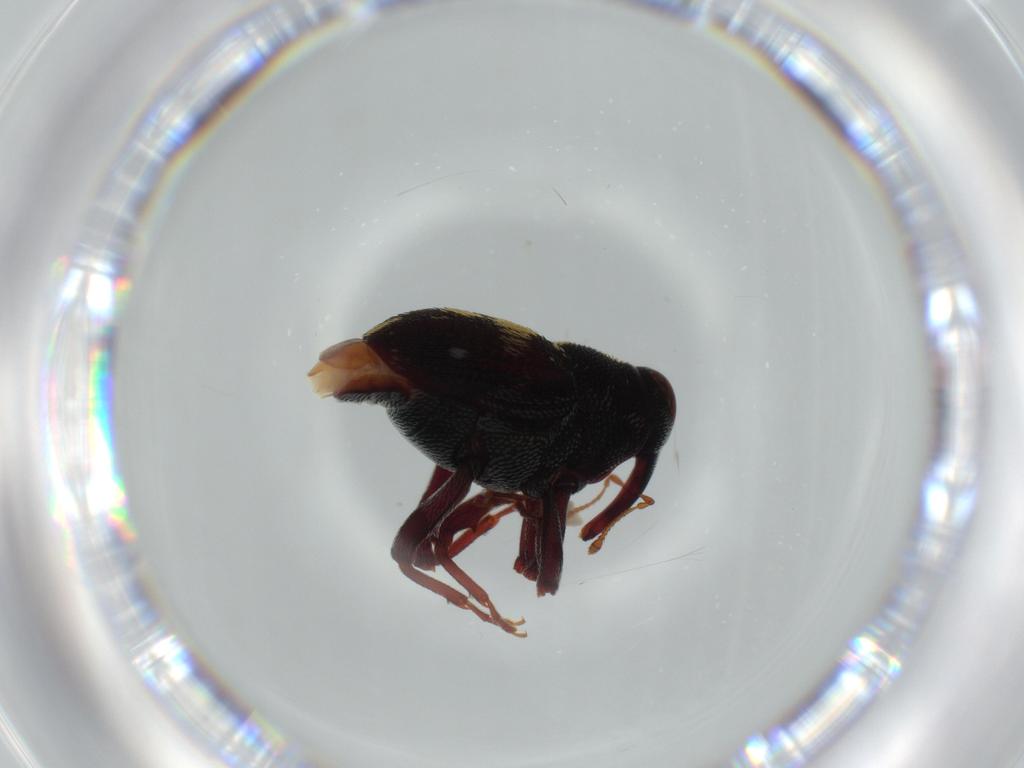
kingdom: Animalia
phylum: Arthropoda
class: Insecta
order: Coleoptera
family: Curculionidae
